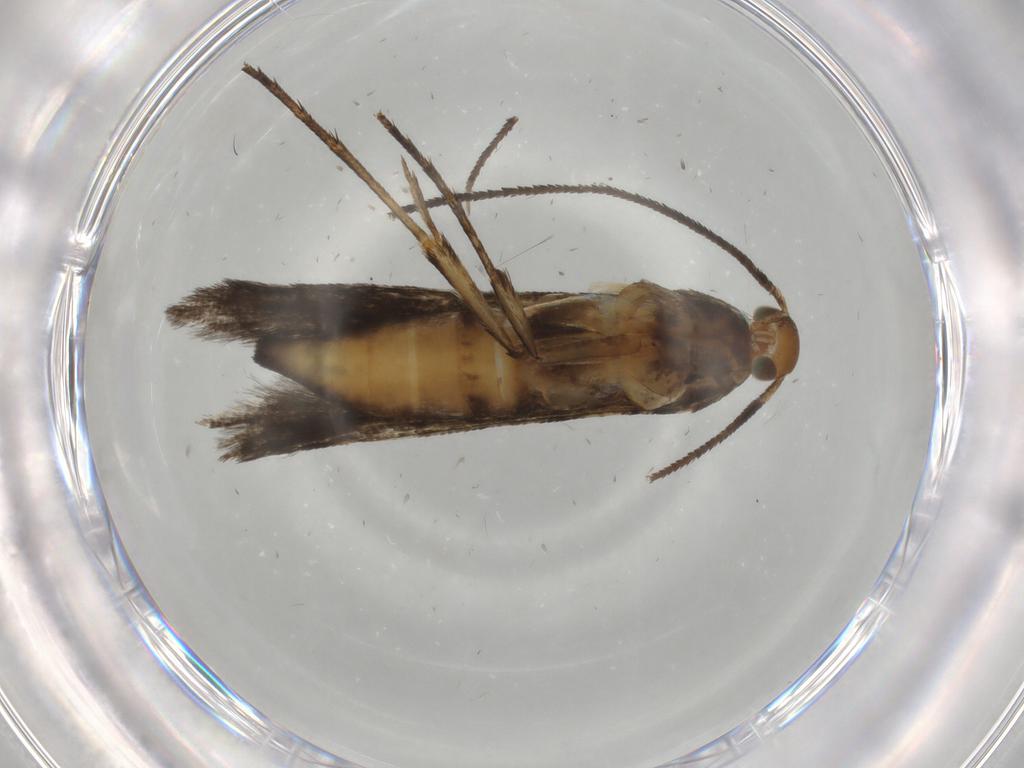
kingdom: Animalia
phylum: Arthropoda
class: Insecta
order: Lepidoptera
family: Heliodinidae
